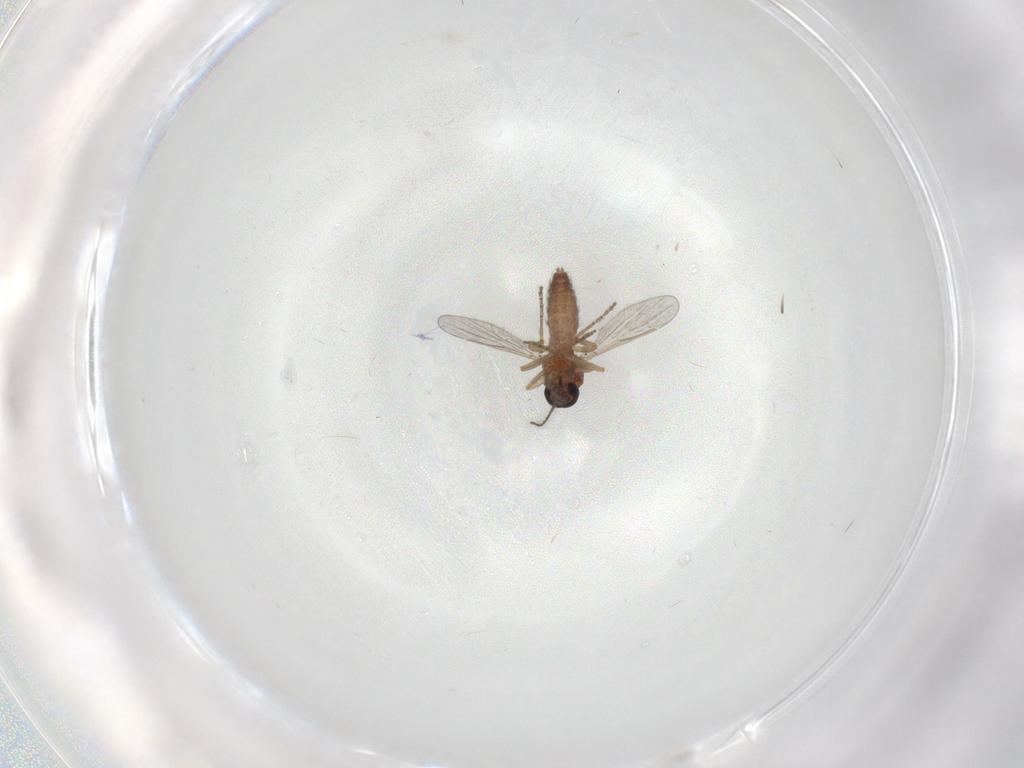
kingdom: Animalia
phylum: Arthropoda
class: Insecta
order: Diptera
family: Ceratopogonidae
